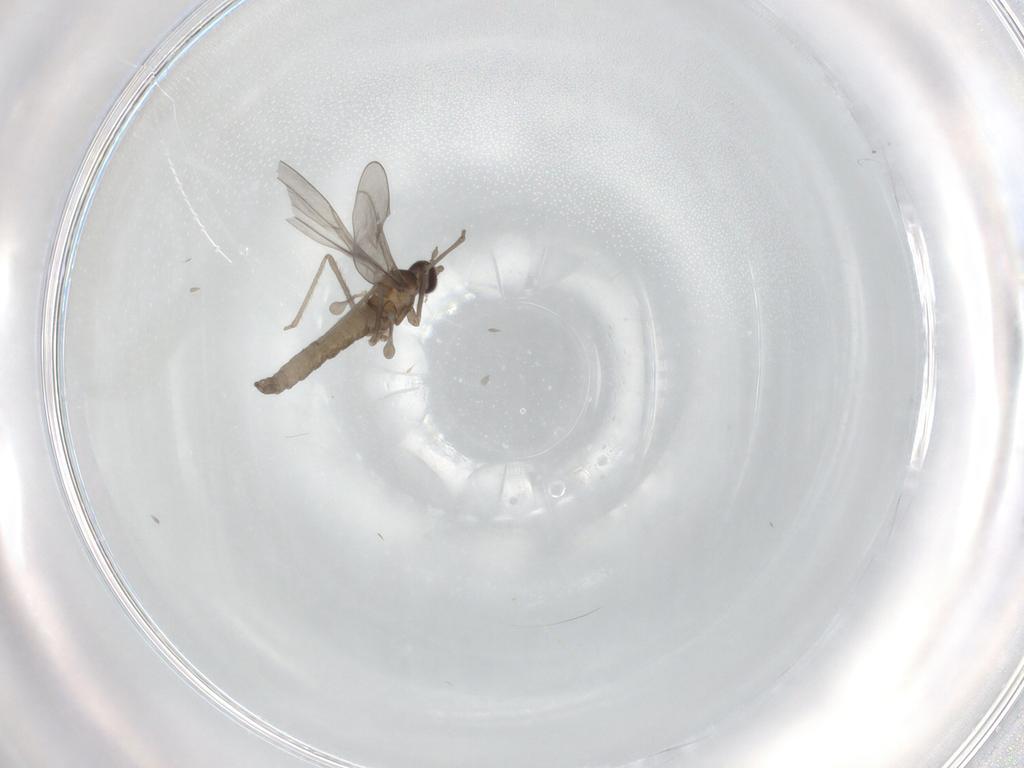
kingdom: Animalia
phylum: Arthropoda
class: Insecta
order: Diptera
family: Cecidomyiidae
